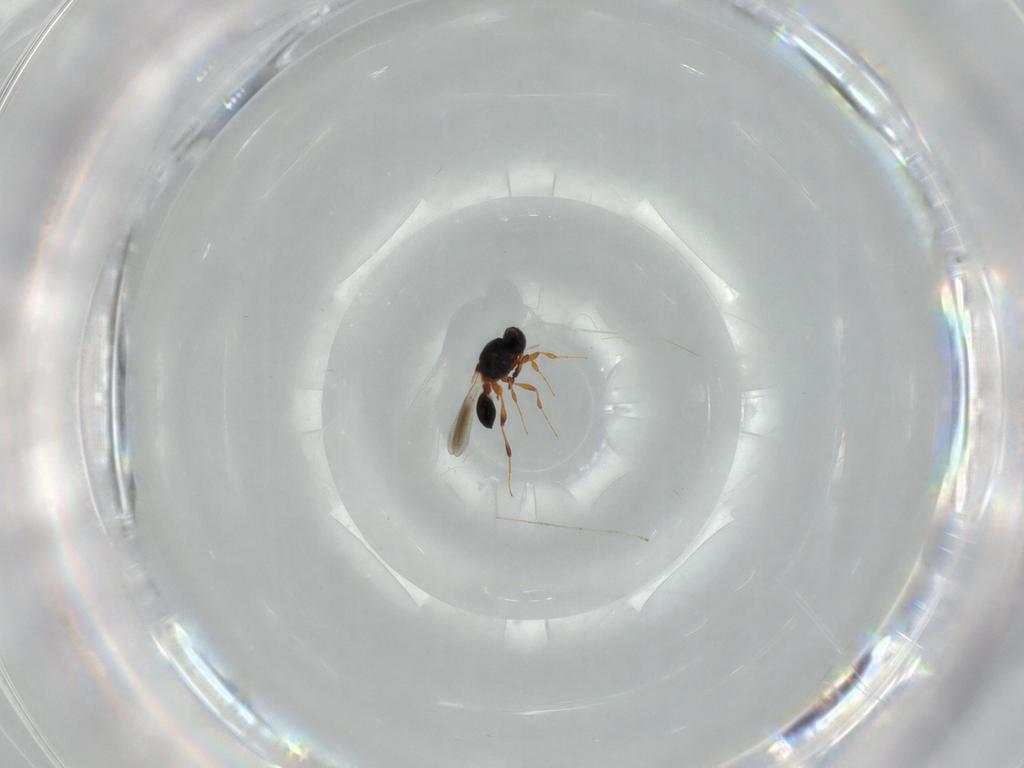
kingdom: Animalia
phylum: Arthropoda
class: Insecta
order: Hymenoptera
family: Platygastridae
